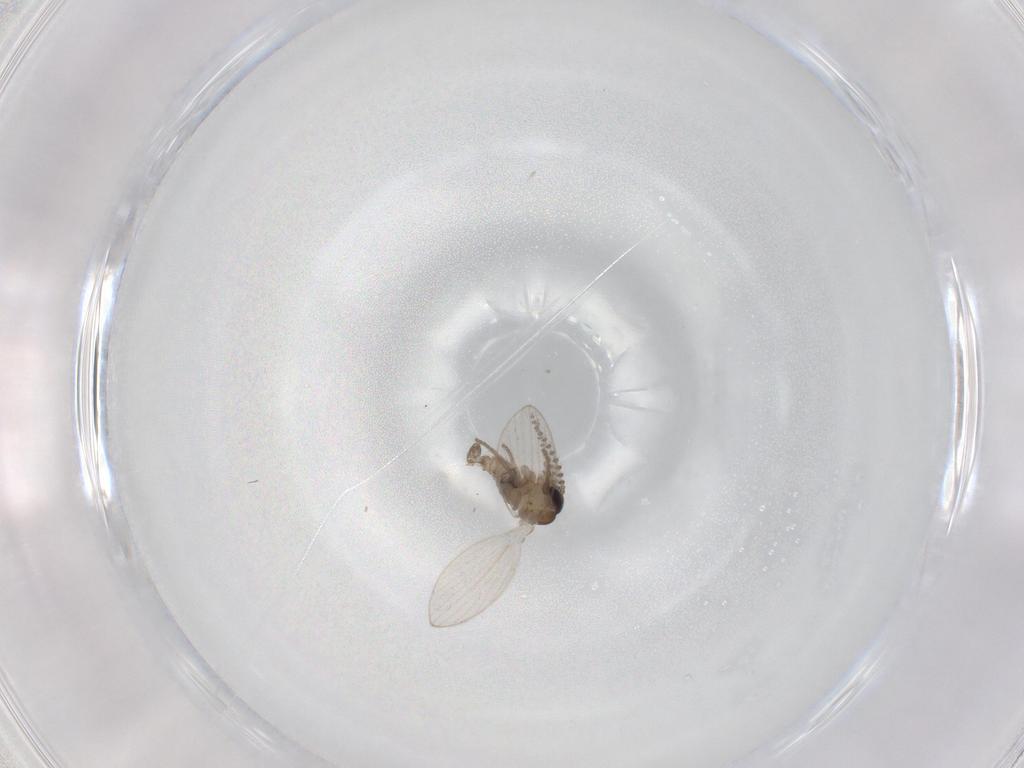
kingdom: Animalia
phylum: Arthropoda
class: Insecta
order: Diptera
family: Psychodidae
